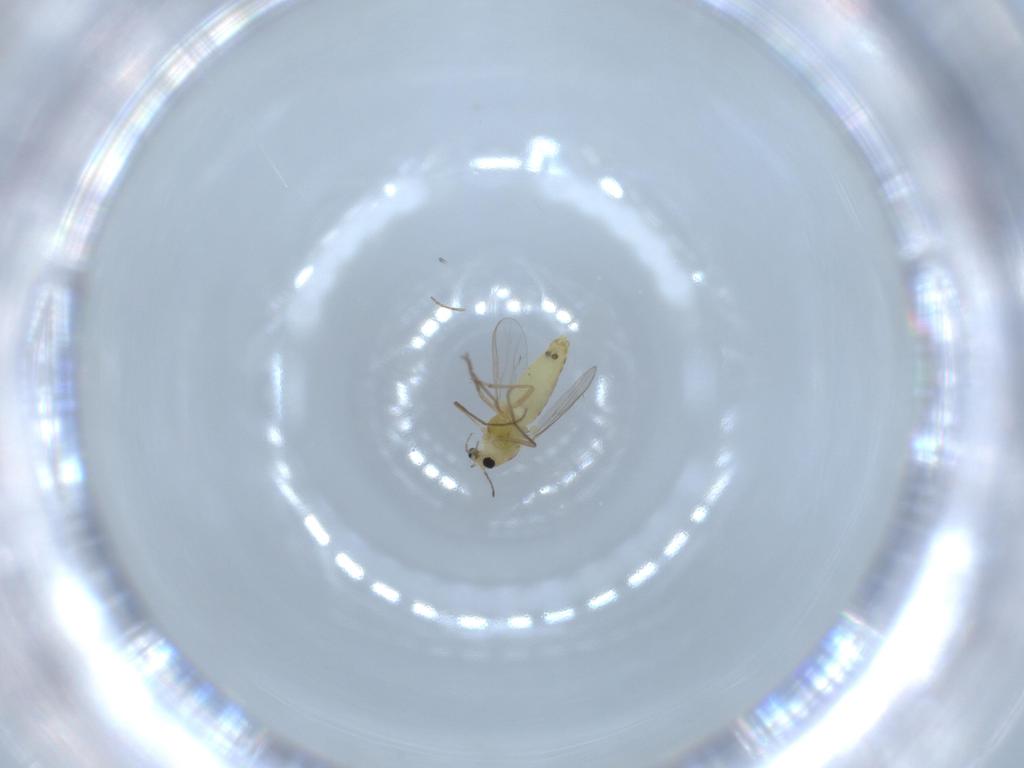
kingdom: Animalia
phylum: Arthropoda
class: Insecta
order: Diptera
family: Chironomidae
